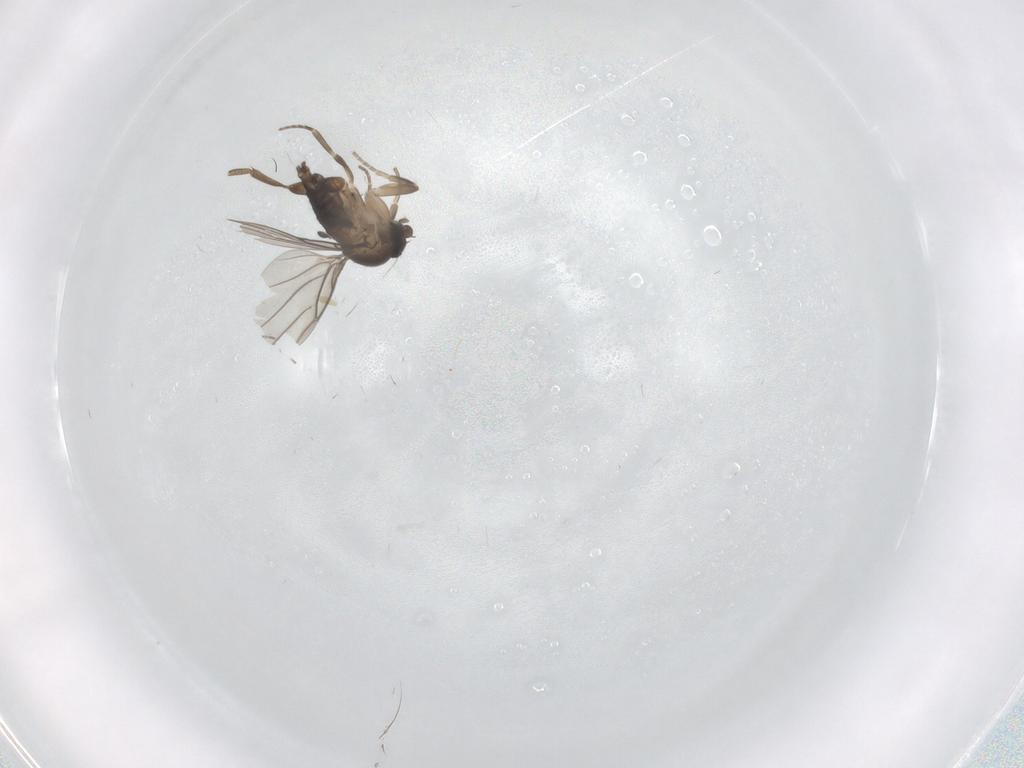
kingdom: Animalia
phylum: Arthropoda
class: Insecta
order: Diptera
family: Phoridae
